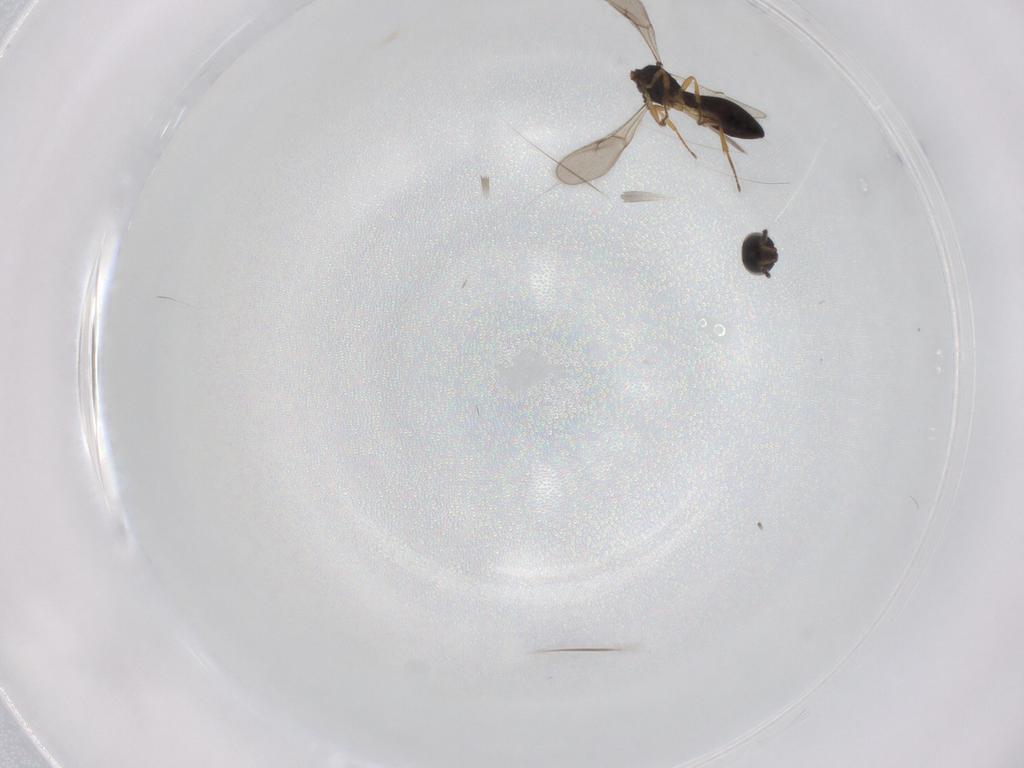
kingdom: Animalia
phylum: Arthropoda
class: Insecta
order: Hymenoptera
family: Scelionidae
